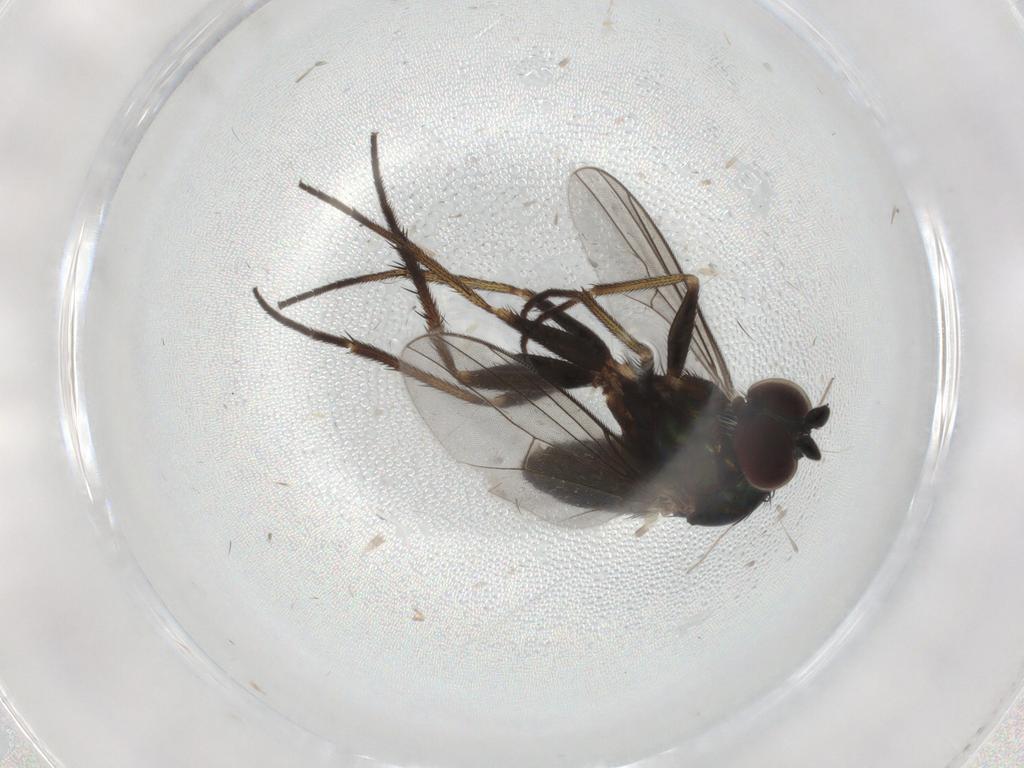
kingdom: Animalia
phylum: Arthropoda
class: Insecta
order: Diptera
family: Dolichopodidae
